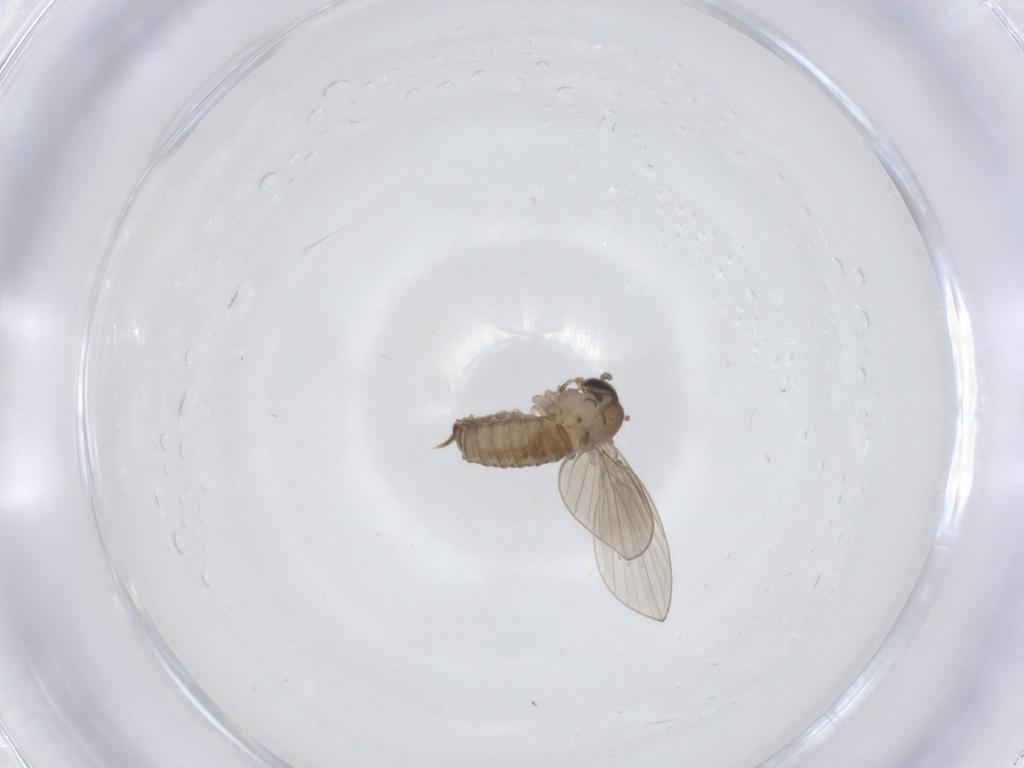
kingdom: Animalia
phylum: Arthropoda
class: Insecta
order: Diptera
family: Psychodidae
